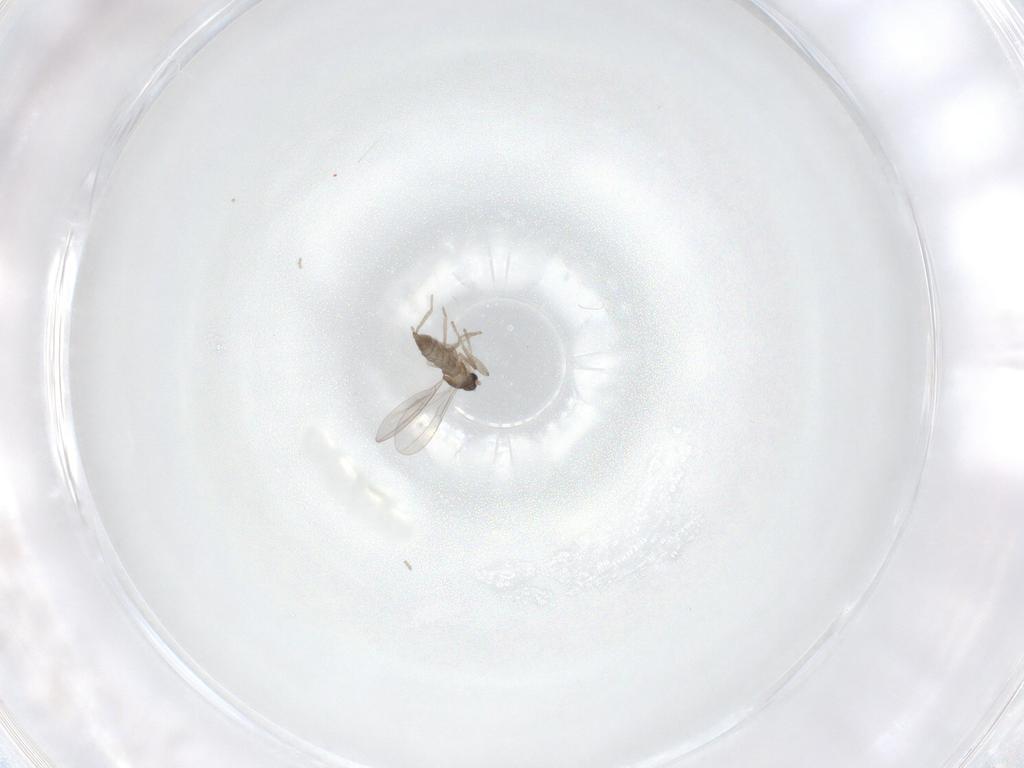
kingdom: Animalia
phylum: Arthropoda
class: Insecta
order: Diptera
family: Cecidomyiidae
